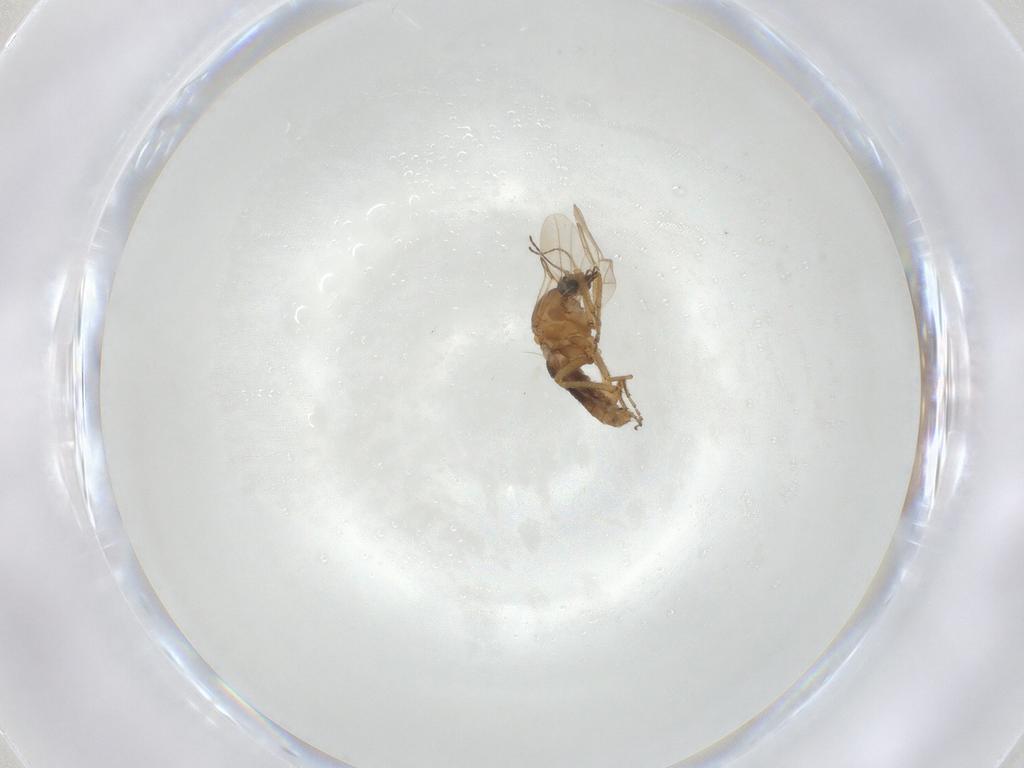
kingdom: Animalia
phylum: Arthropoda
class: Insecta
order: Diptera
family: Ceratopogonidae
